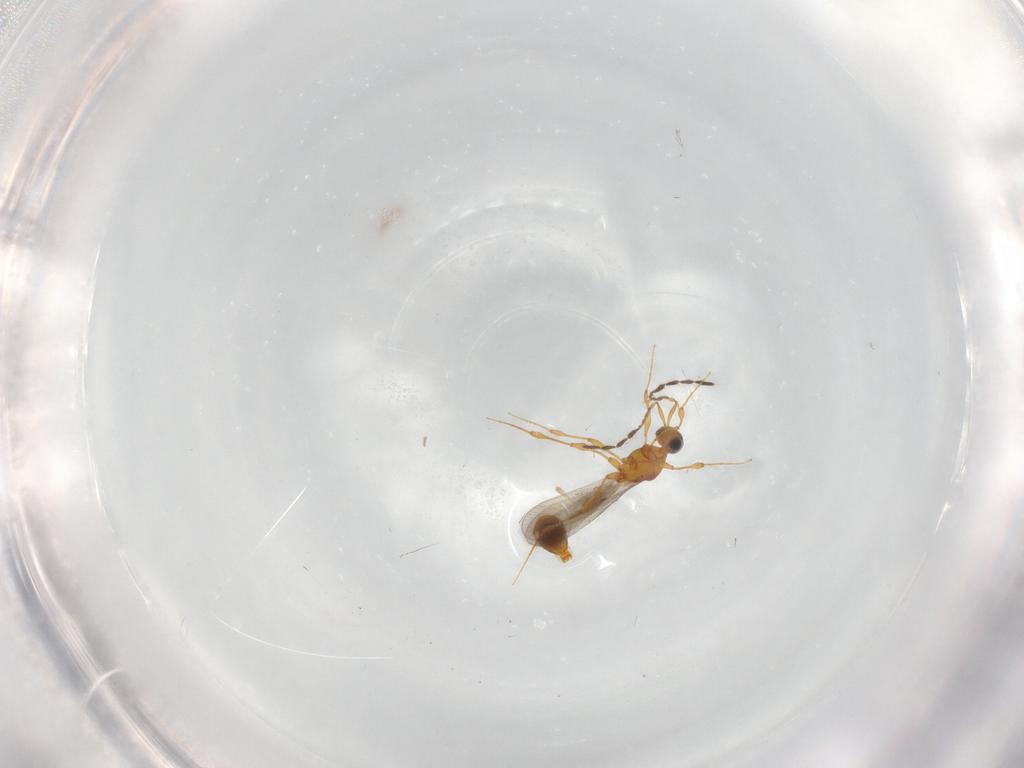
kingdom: Animalia
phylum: Arthropoda
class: Insecta
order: Hymenoptera
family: Platygastridae
